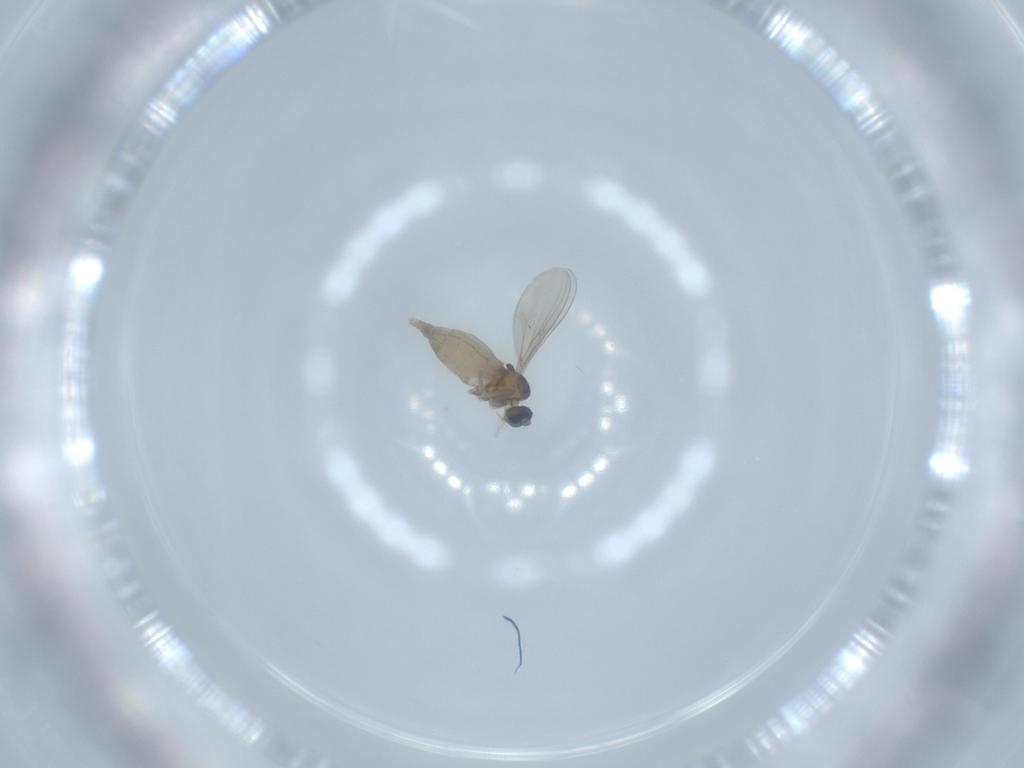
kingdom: Animalia
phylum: Arthropoda
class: Insecta
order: Diptera
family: Cecidomyiidae
